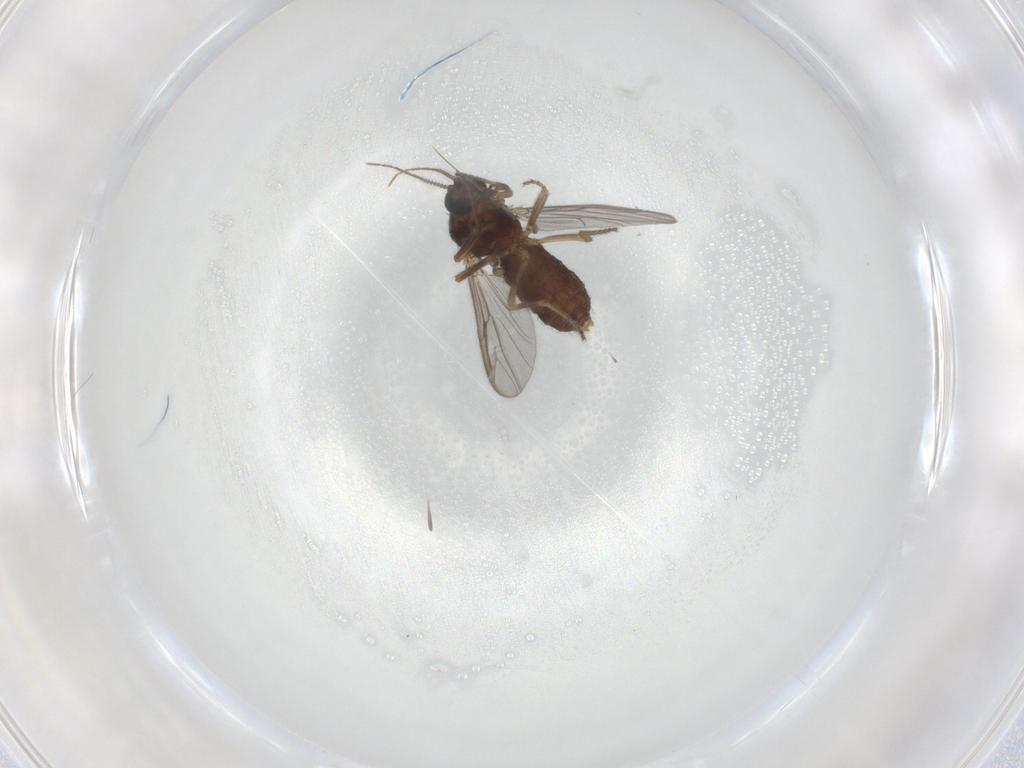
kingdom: Animalia
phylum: Arthropoda
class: Insecta
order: Diptera
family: Ceratopogonidae
